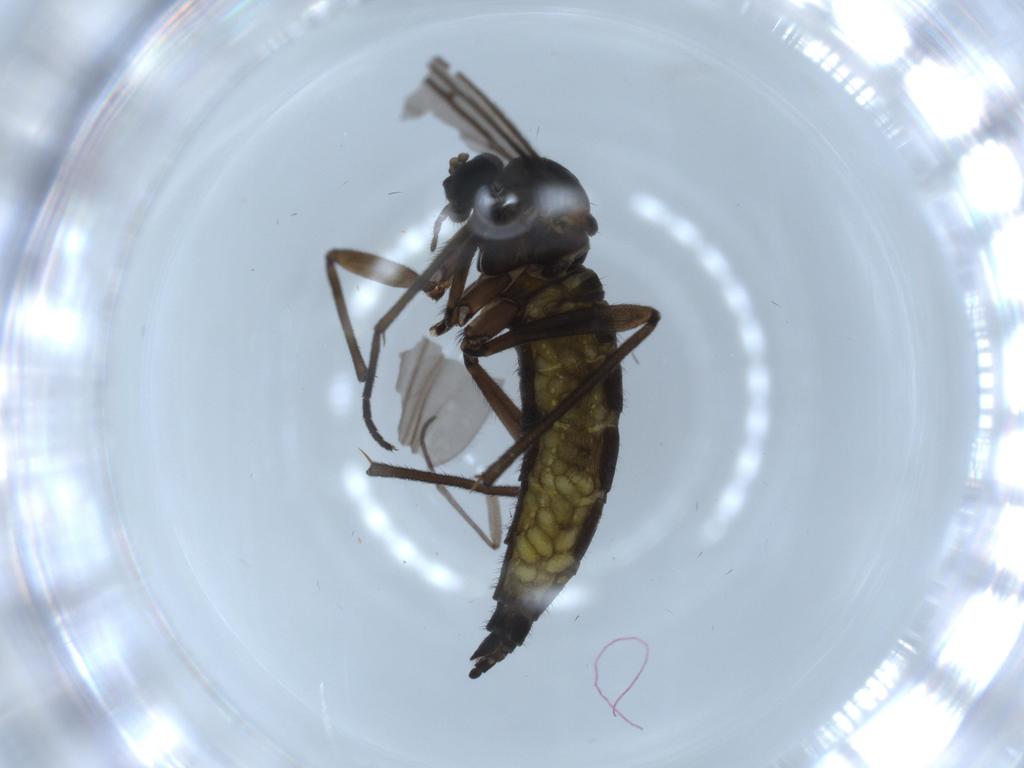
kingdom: Animalia
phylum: Arthropoda
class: Insecta
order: Diptera
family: Sciaridae
